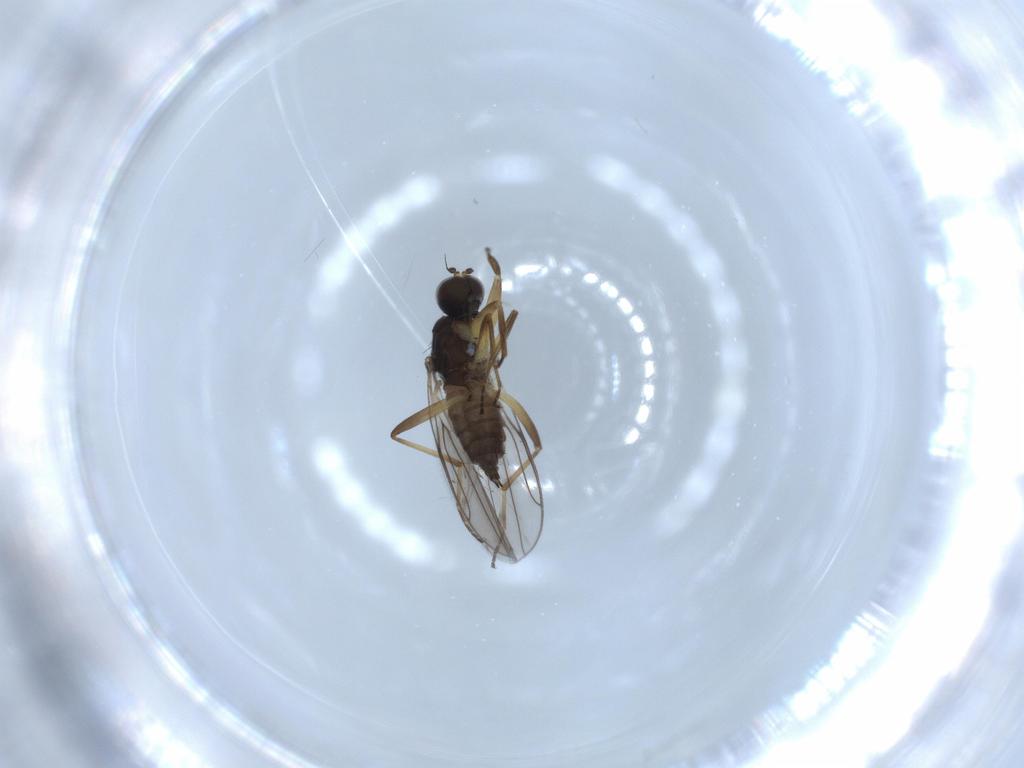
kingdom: Animalia
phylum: Arthropoda
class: Insecta
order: Diptera
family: Hybotidae
